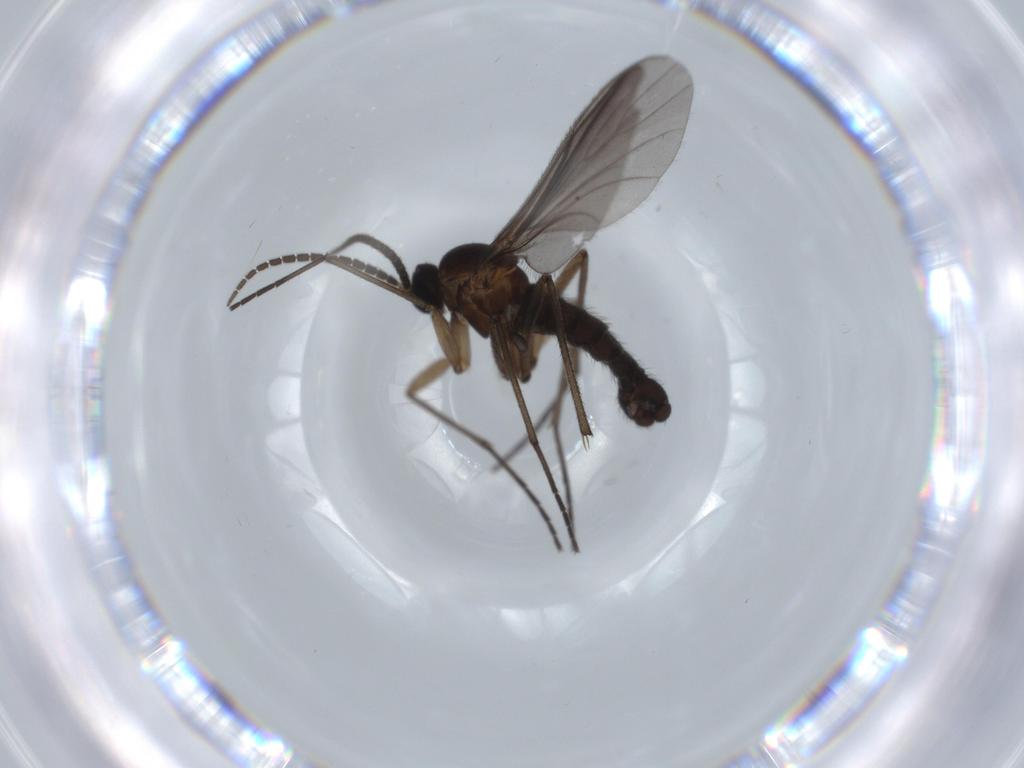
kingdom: Animalia
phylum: Arthropoda
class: Insecta
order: Diptera
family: Sciaridae
